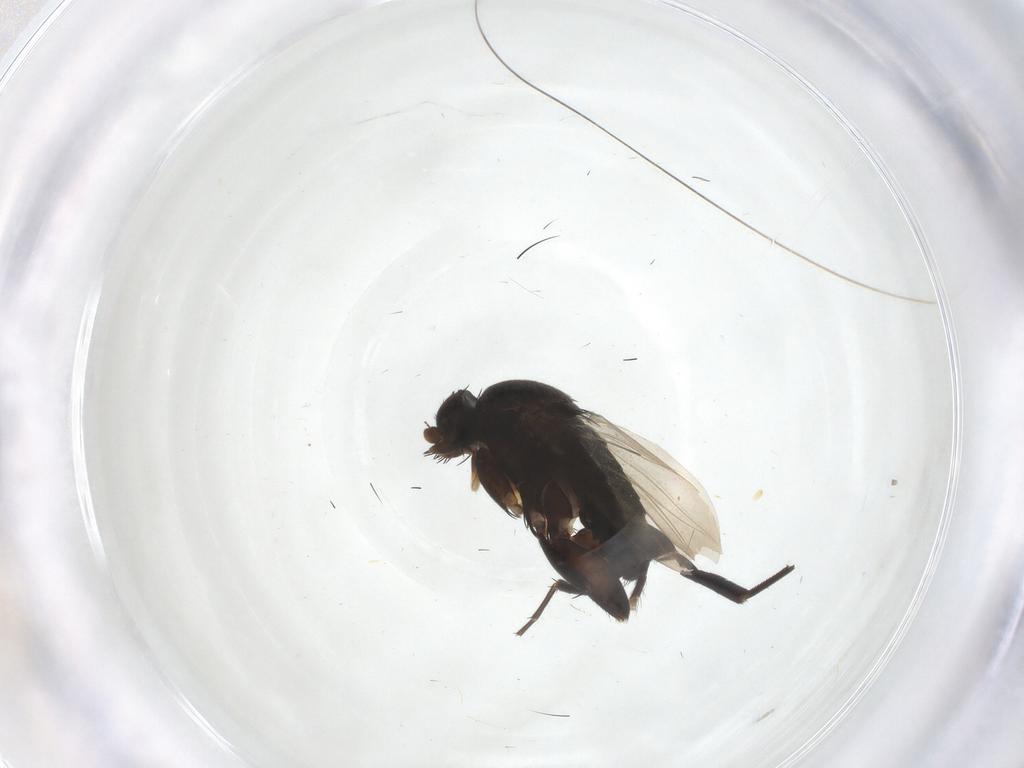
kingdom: Animalia
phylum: Arthropoda
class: Insecta
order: Diptera
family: Phoridae
